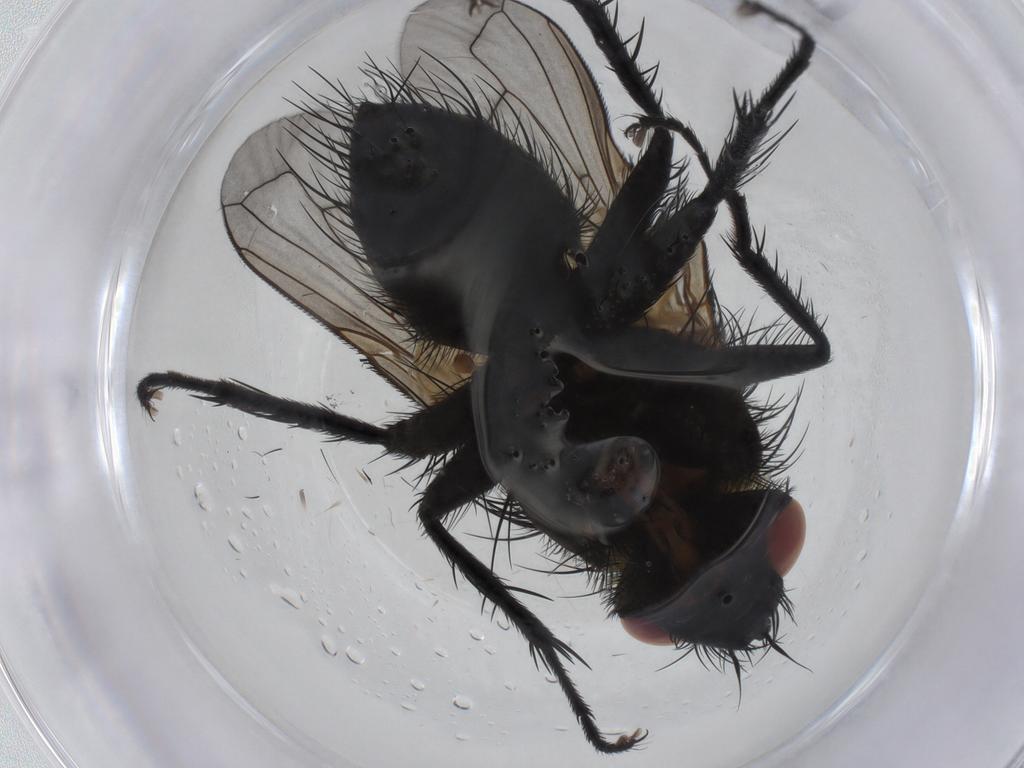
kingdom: Animalia
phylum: Arthropoda
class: Insecta
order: Diptera
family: Tachinidae
